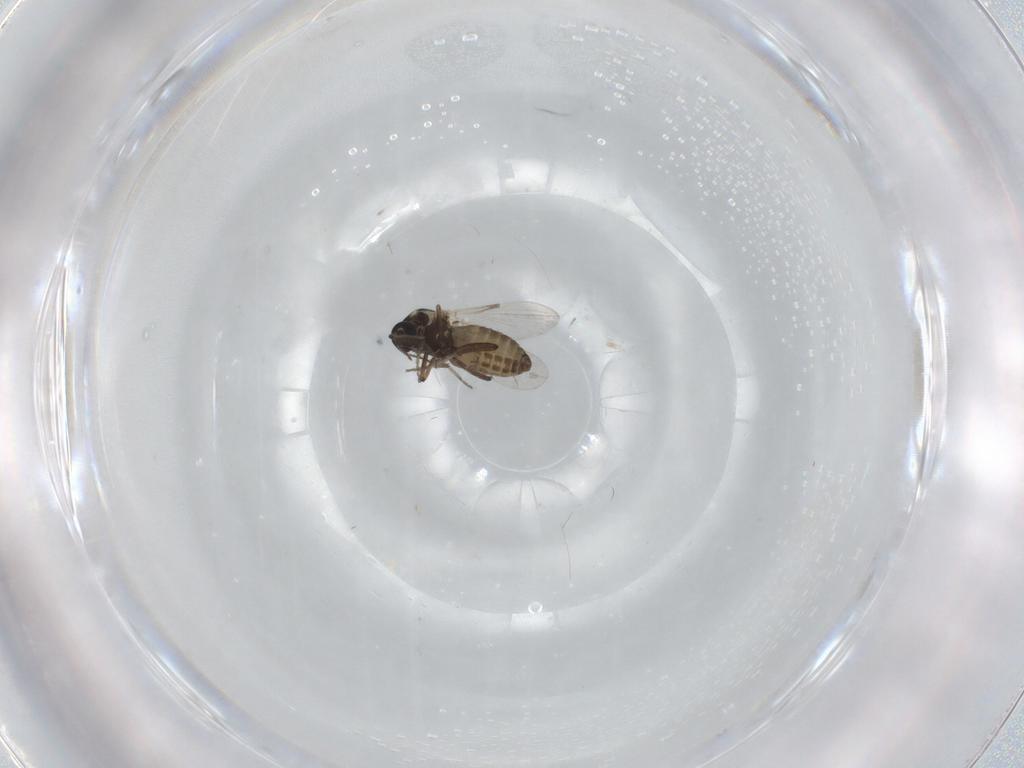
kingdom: Animalia
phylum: Arthropoda
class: Insecta
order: Diptera
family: Ceratopogonidae
